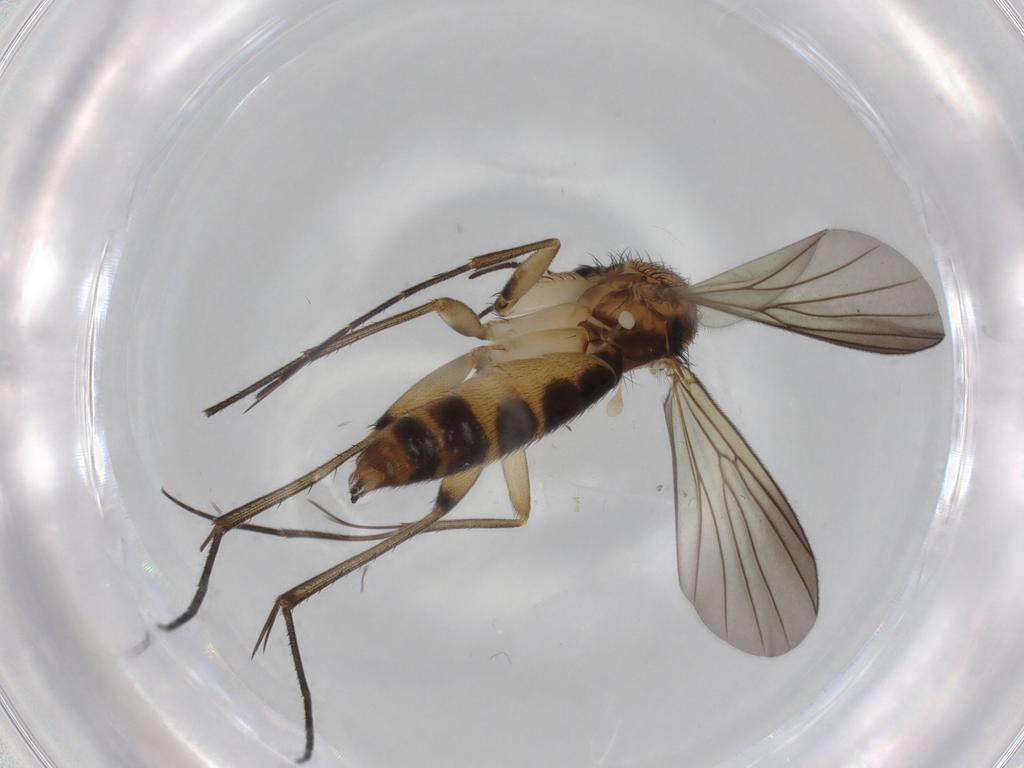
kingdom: Animalia
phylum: Arthropoda
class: Insecta
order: Diptera
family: Mycetophilidae
